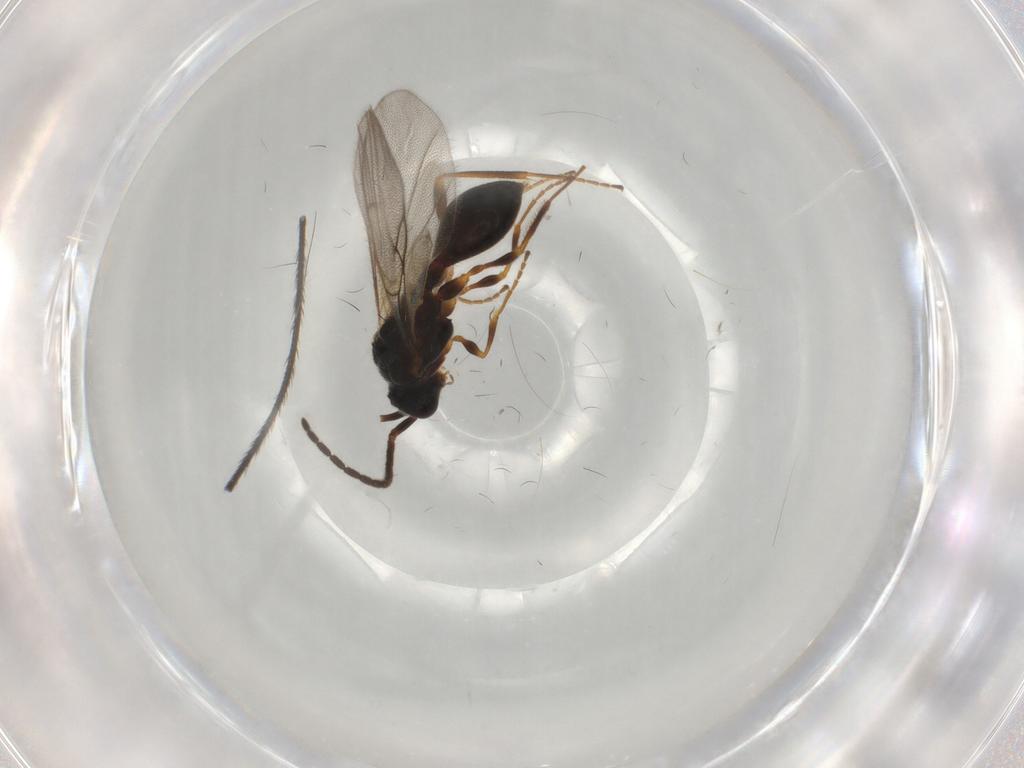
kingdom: Animalia
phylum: Arthropoda
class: Insecta
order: Hymenoptera
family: Diapriidae
